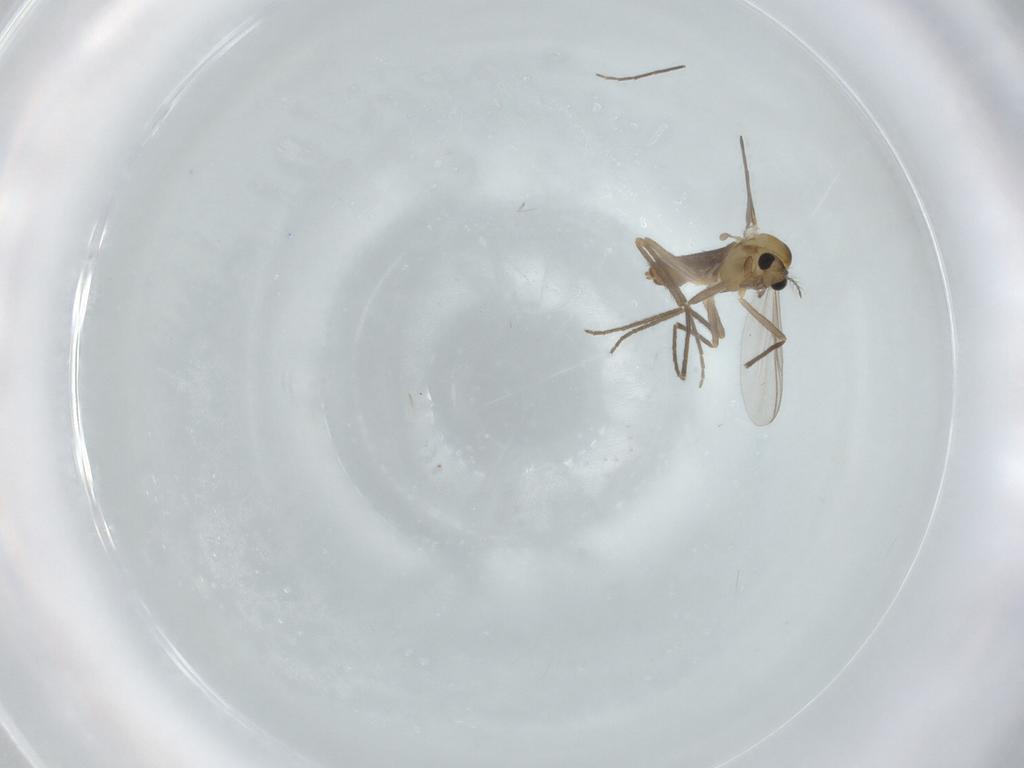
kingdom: Animalia
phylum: Arthropoda
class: Insecta
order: Diptera
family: Chironomidae
